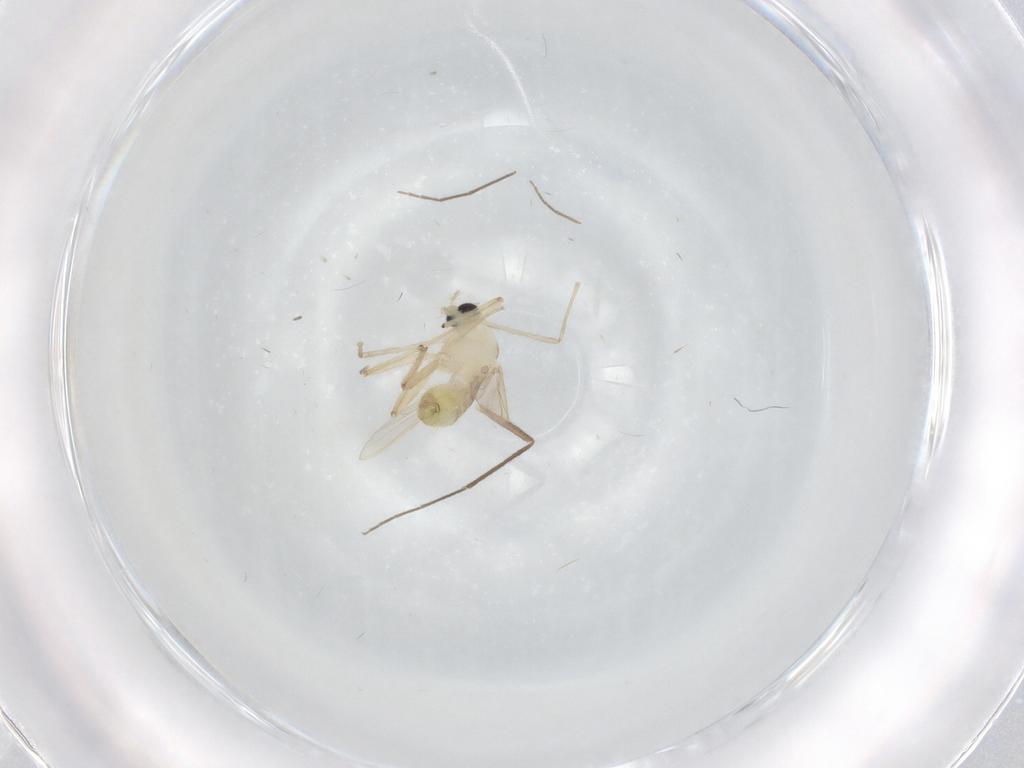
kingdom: Animalia
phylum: Arthropoda
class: Insecta
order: Diptera
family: Chironomidae
